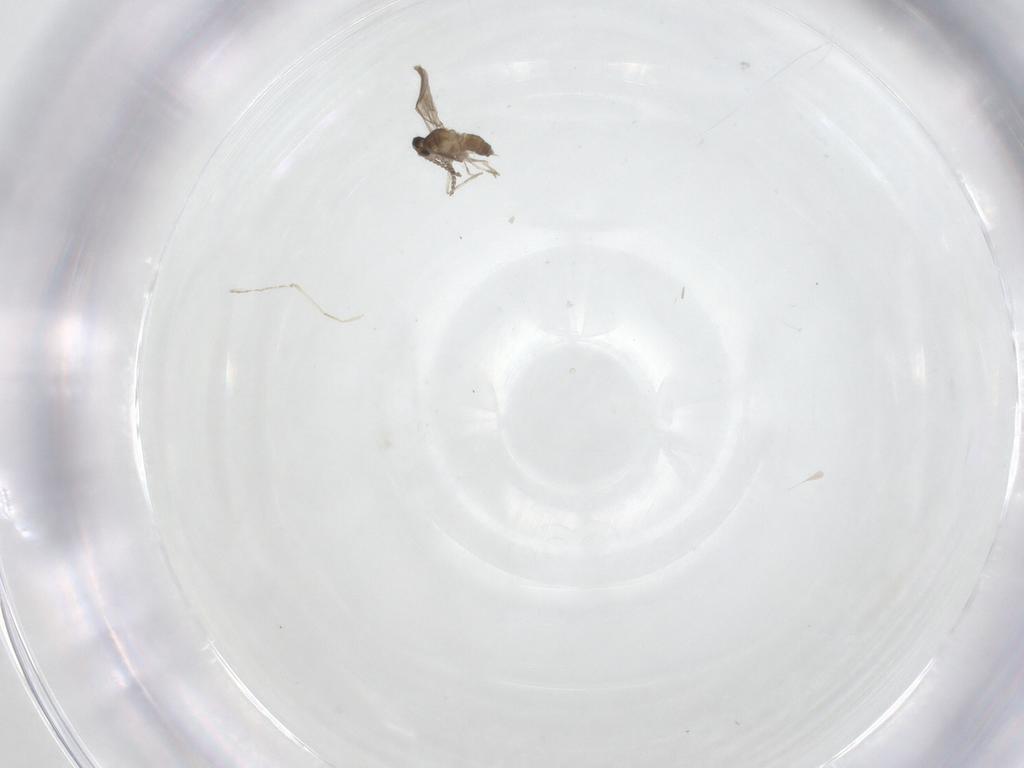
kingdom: Animalia
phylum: Arthropoda
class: Insecta
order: Diptera
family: Cecidomyiidae
